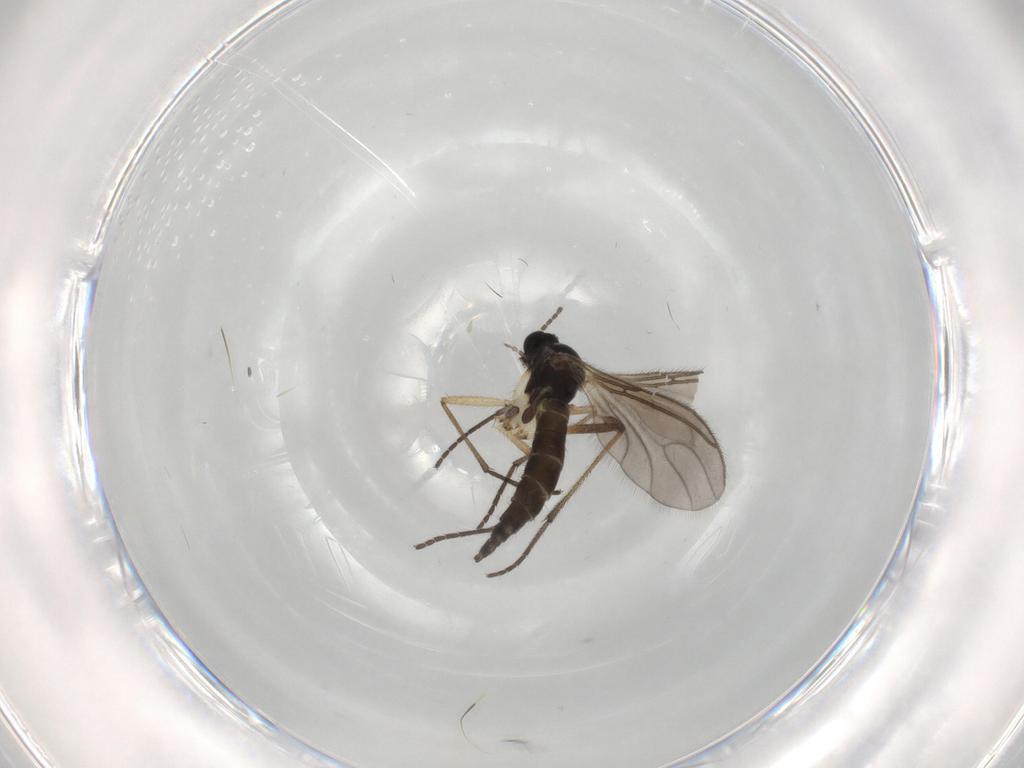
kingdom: Animalia
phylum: Arthropoda
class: Insecta
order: Diptera
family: Sciaridae
